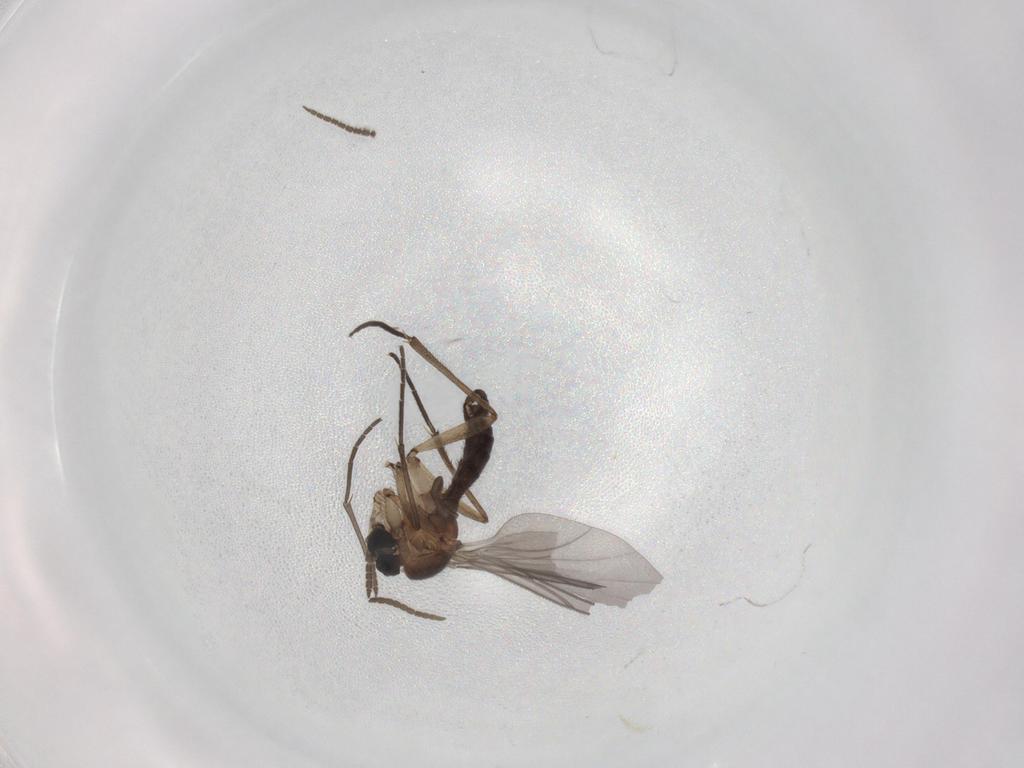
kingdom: Animalia
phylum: Arthropoda
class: Insecta
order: Diptera
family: Sciaridae
